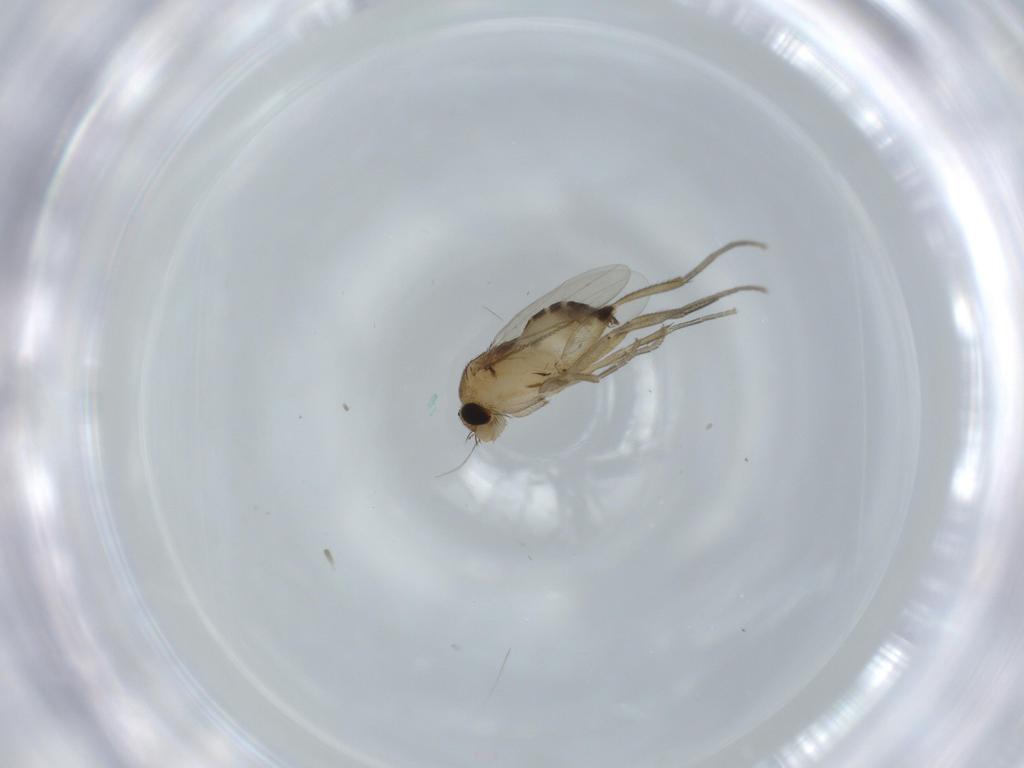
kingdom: Animalia
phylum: Arthropoda
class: Insecta
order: Diptera
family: Phoridae
